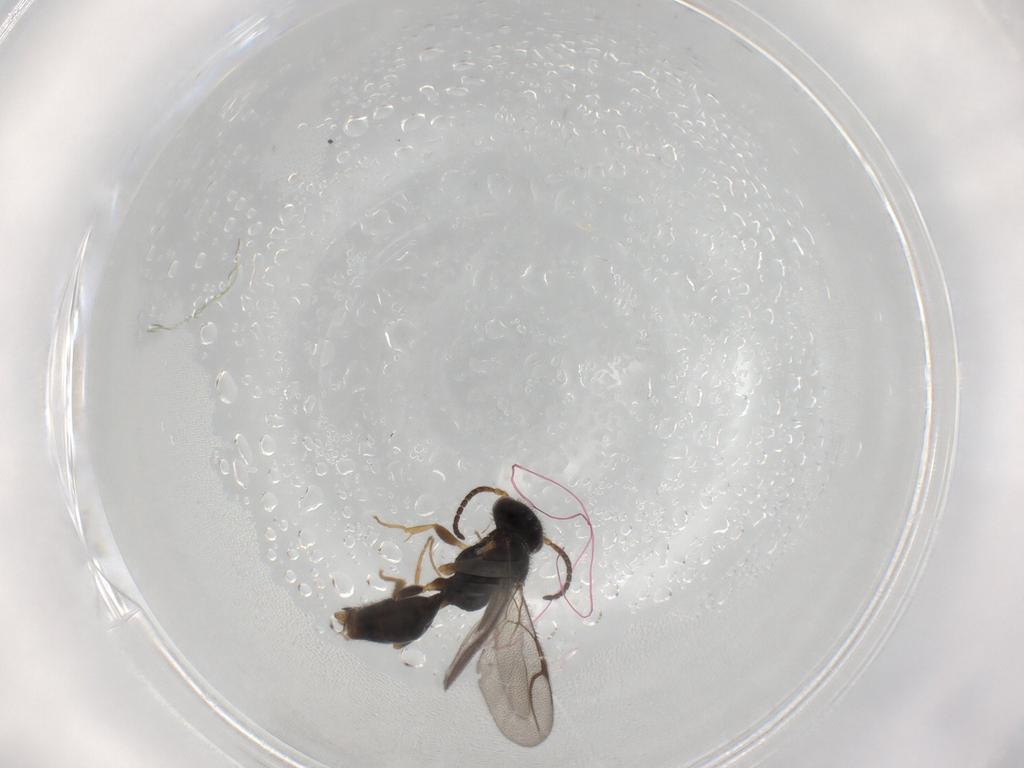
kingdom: Animalia
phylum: Arthropoda
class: Insecta
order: Hymenoptera
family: Bethylidae
